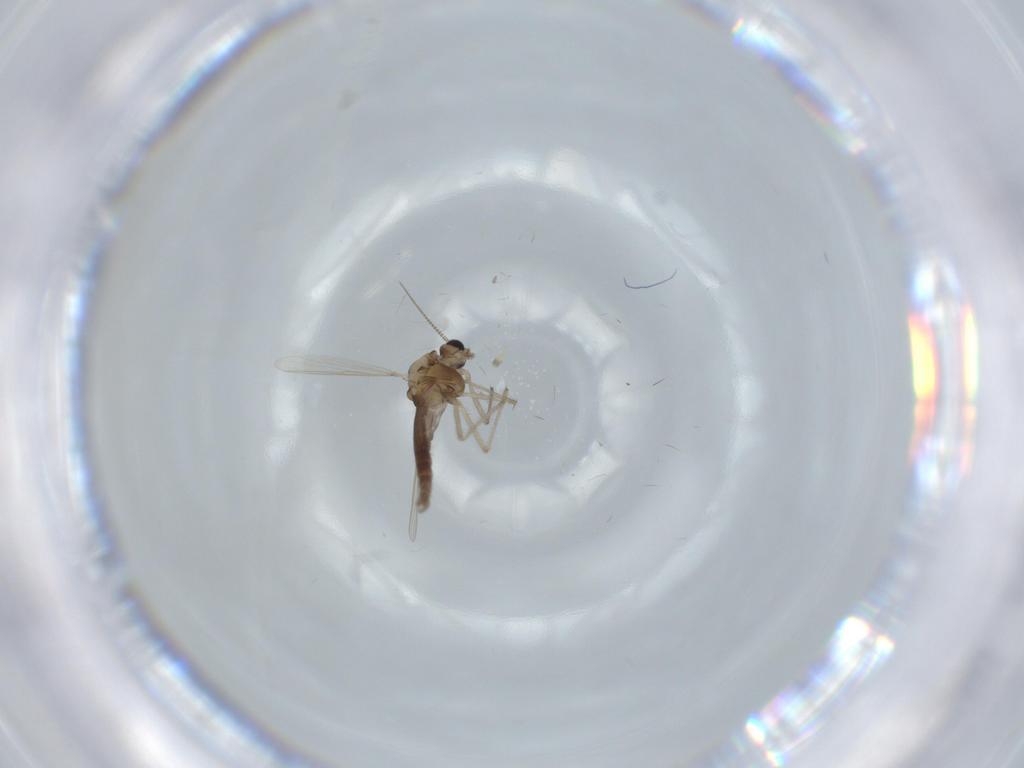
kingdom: Animalia
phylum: Arthropoda
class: Insecta
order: Diptera
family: Chironomidae
